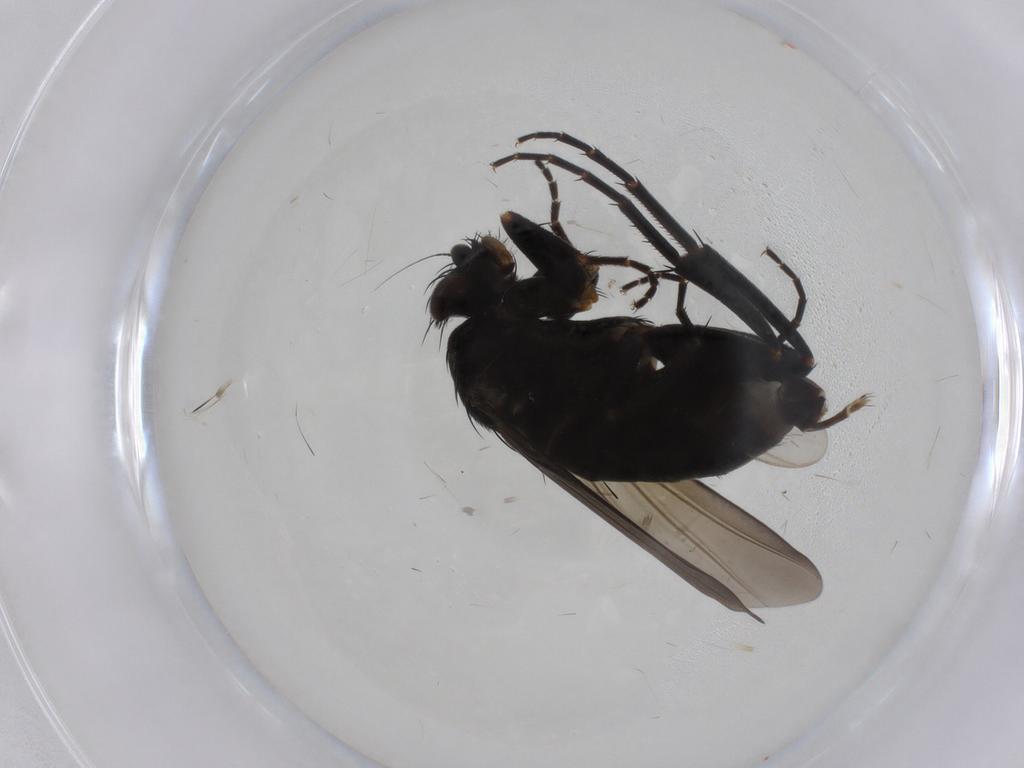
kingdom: Animalia
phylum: Arthropoda
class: Insecta
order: Diptera
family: Phoridae
